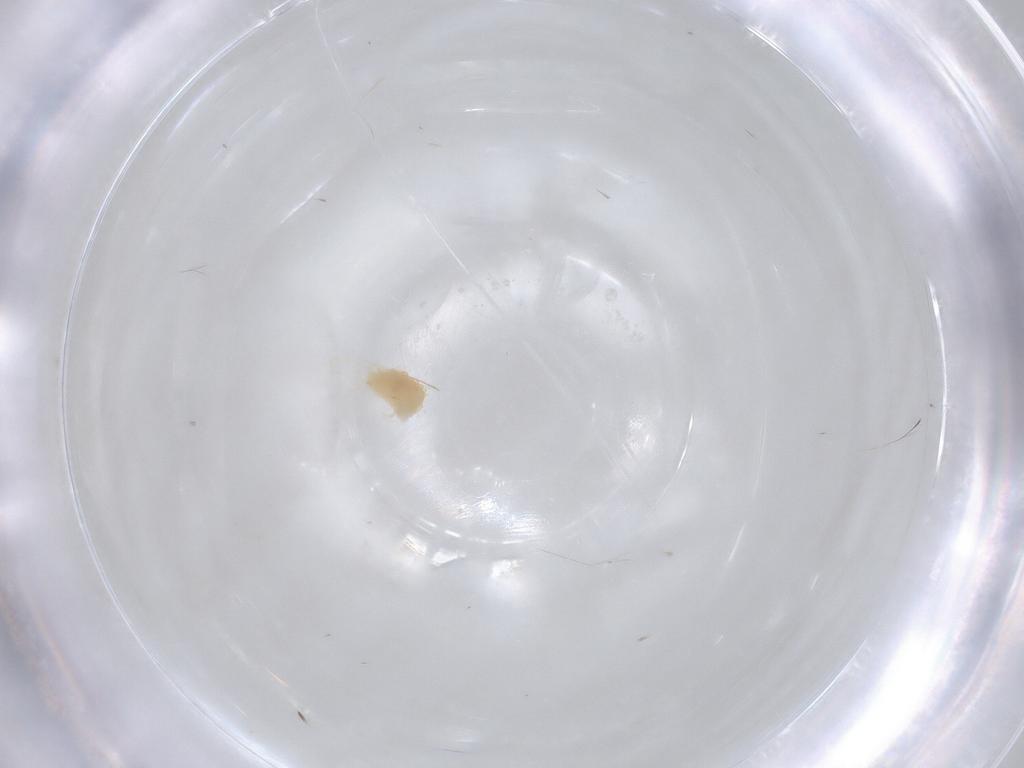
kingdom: Animalia
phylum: Arthropoda
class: Arachnida
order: Trombidiformes
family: Tetranychidae
